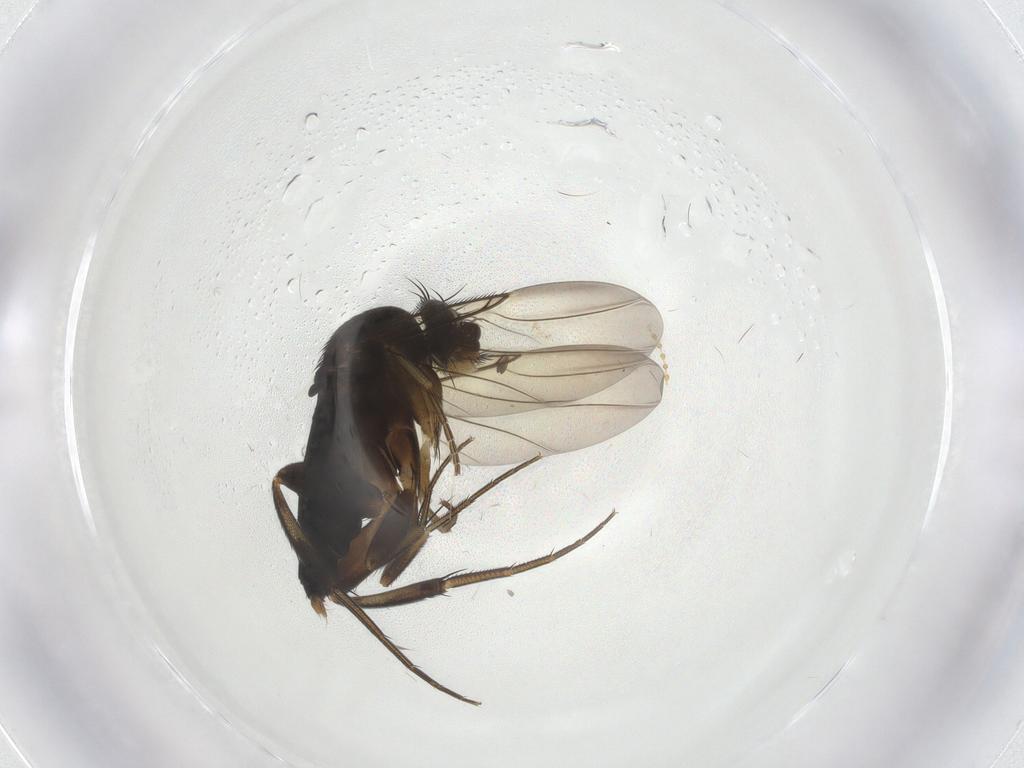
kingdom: Animalia
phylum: Arthropoda
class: Insecta
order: Diptera
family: Phoridae
